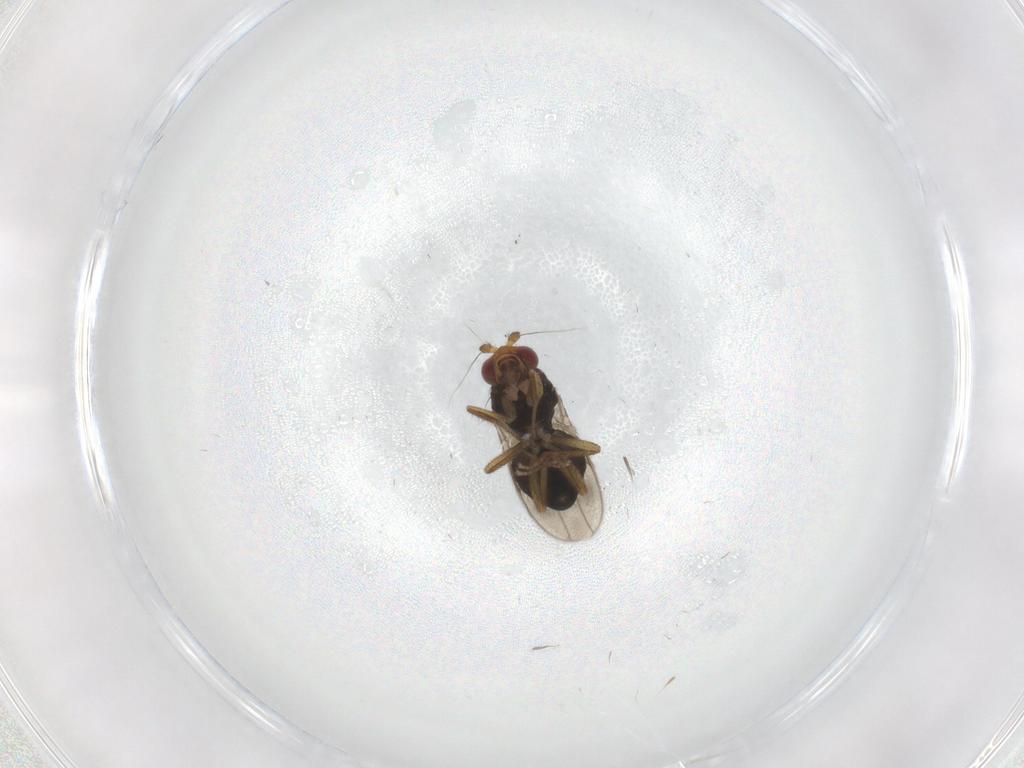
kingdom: Animalia
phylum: Arthropoda
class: Insecta
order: Diptera
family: Sphaeroceridae
